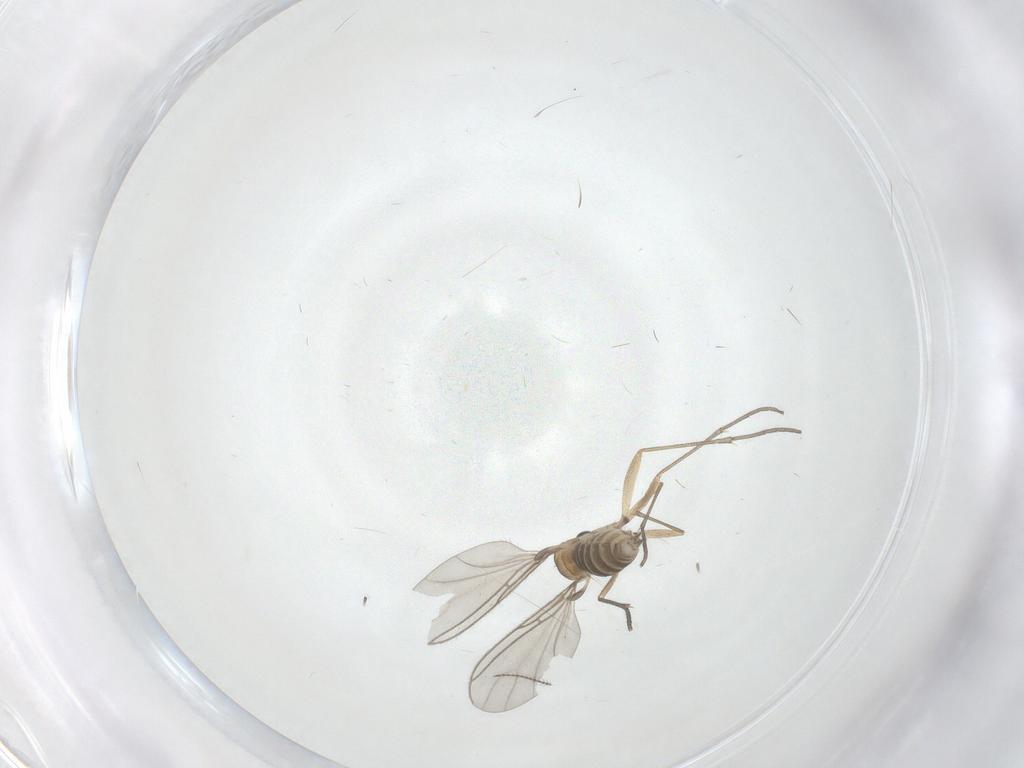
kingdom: Animalia
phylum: Arthropoda
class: Insecta
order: Diptera
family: Sciaridae
